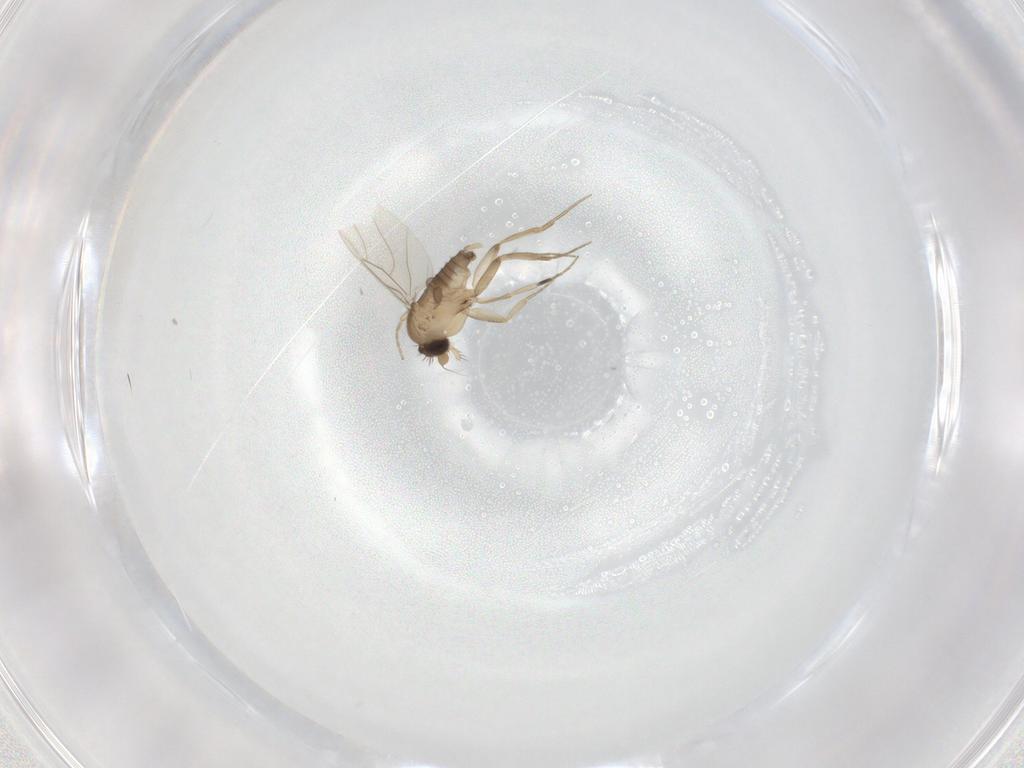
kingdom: Animalia
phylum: Arthropoda
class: Insecta
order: Diptera
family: Phoridae
